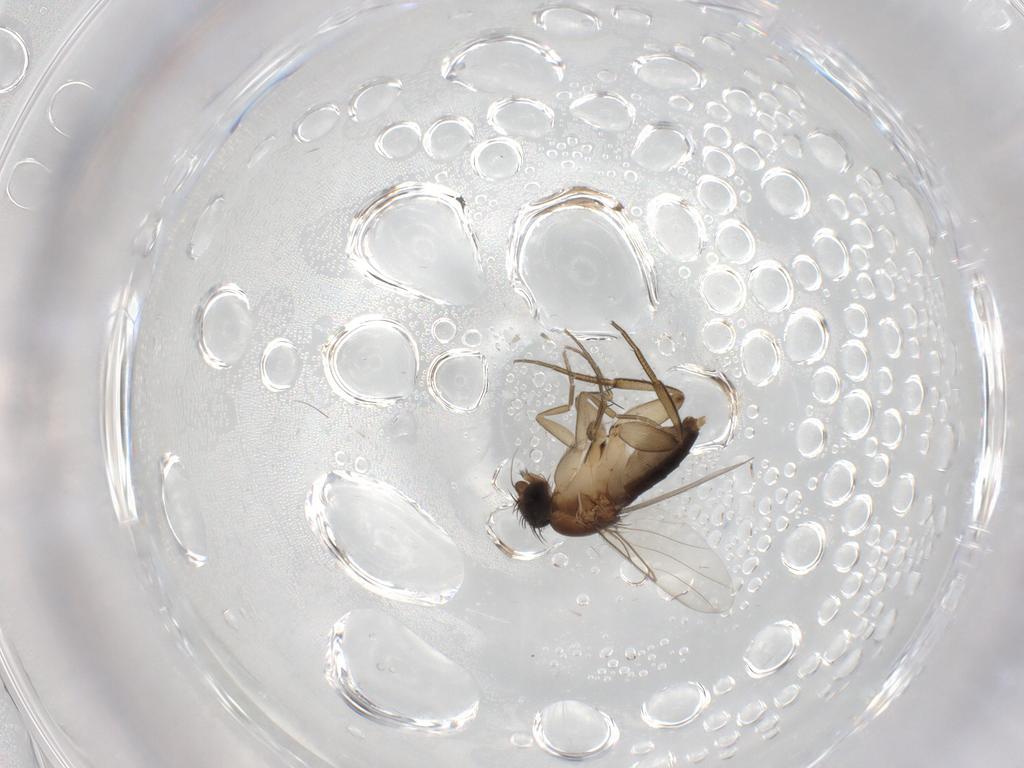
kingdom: Animalia
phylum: Arthropoda
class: Insecta
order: Diptera
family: Phoridae
